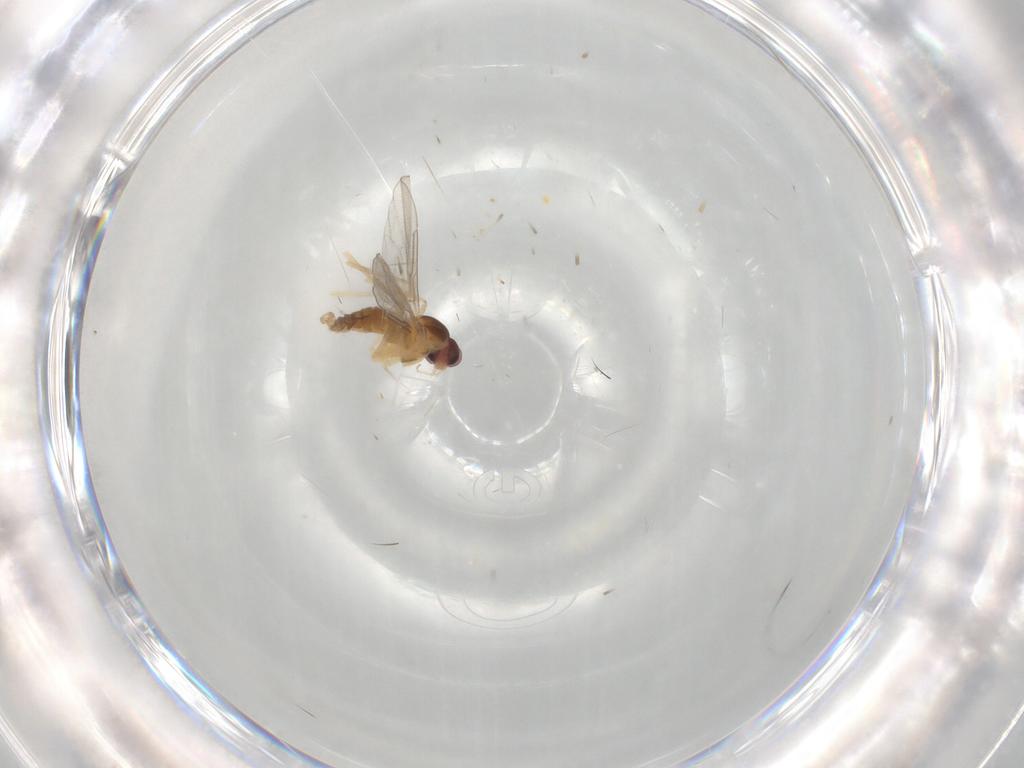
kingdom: Animalia
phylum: Arthropoda
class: Insecta
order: Diptera
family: Cecidomyiidae
